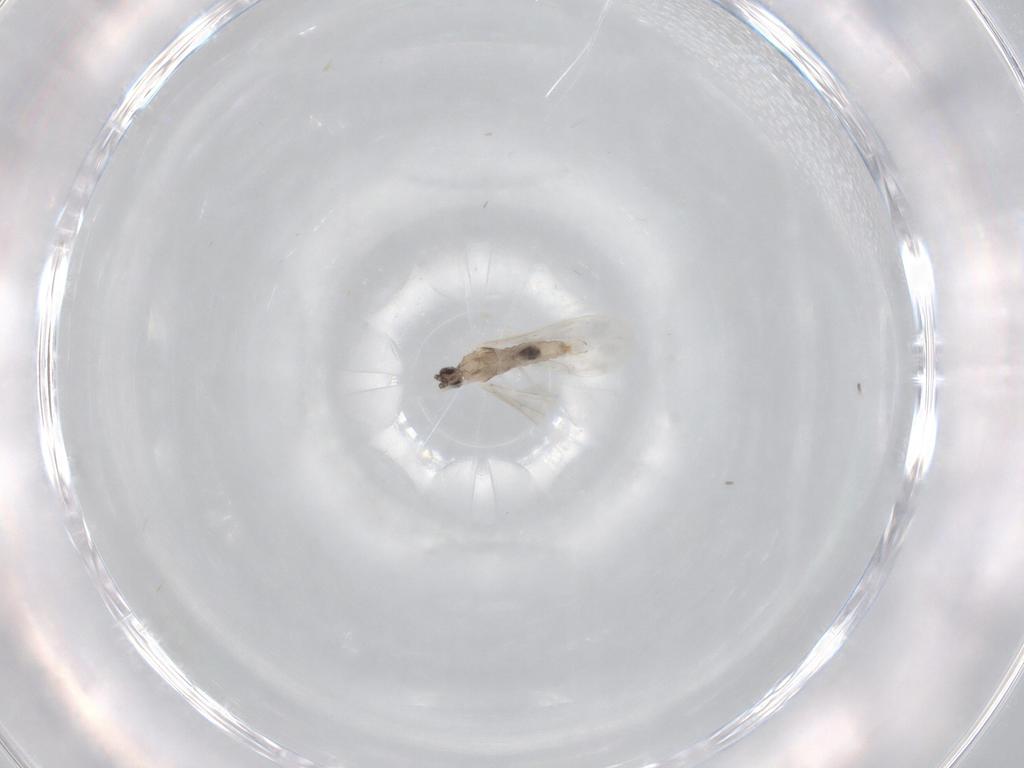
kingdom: Animalia
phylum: Arthropoda
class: Insecta
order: Diptera
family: Cecidomyiidae
